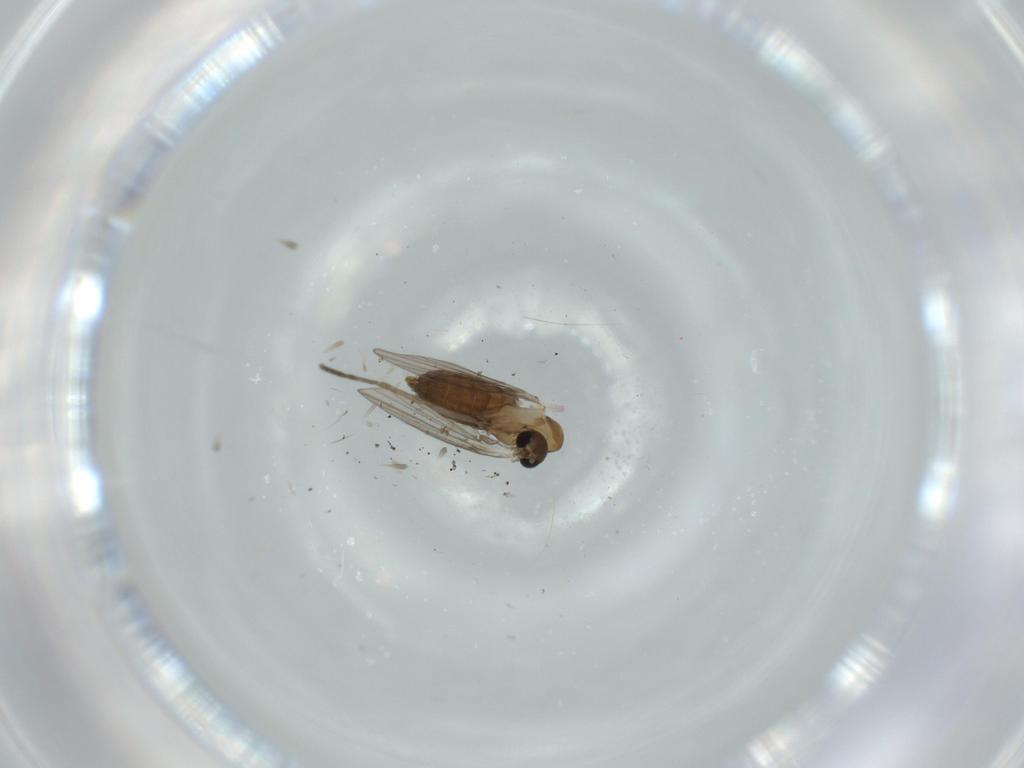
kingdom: Animalia
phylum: Arthropoda
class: Insecta
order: Diptera
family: Psychodidae
